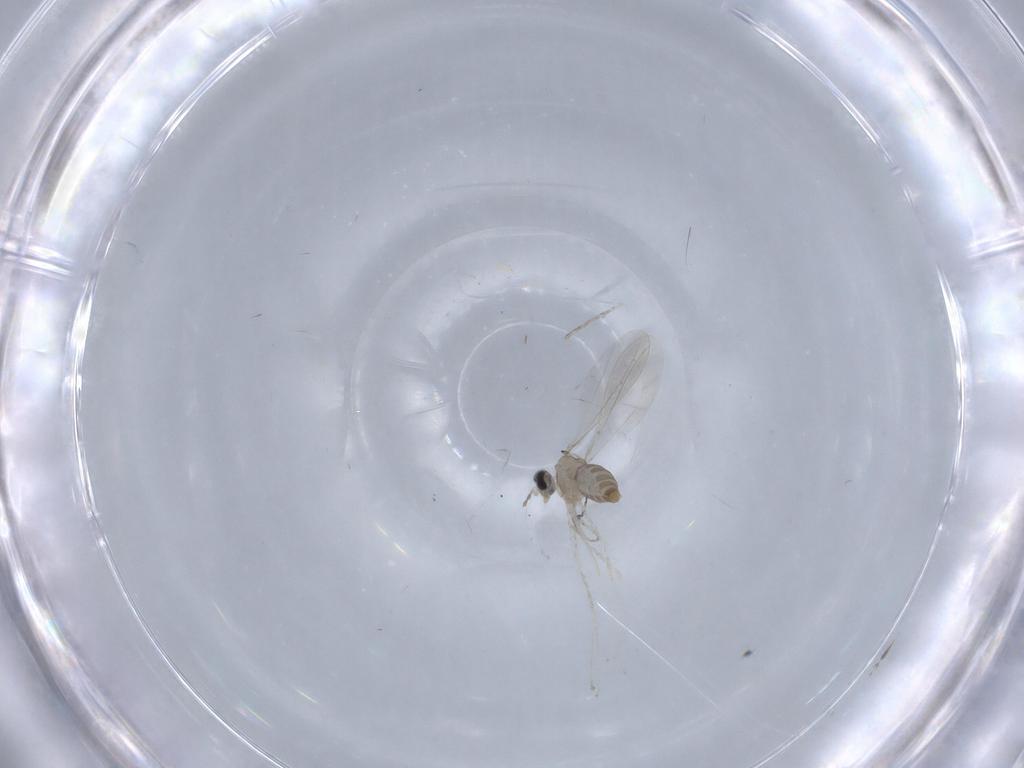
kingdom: Animalia
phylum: Arthropoda
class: Insecta
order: Diptera
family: Cecidomyiidae
